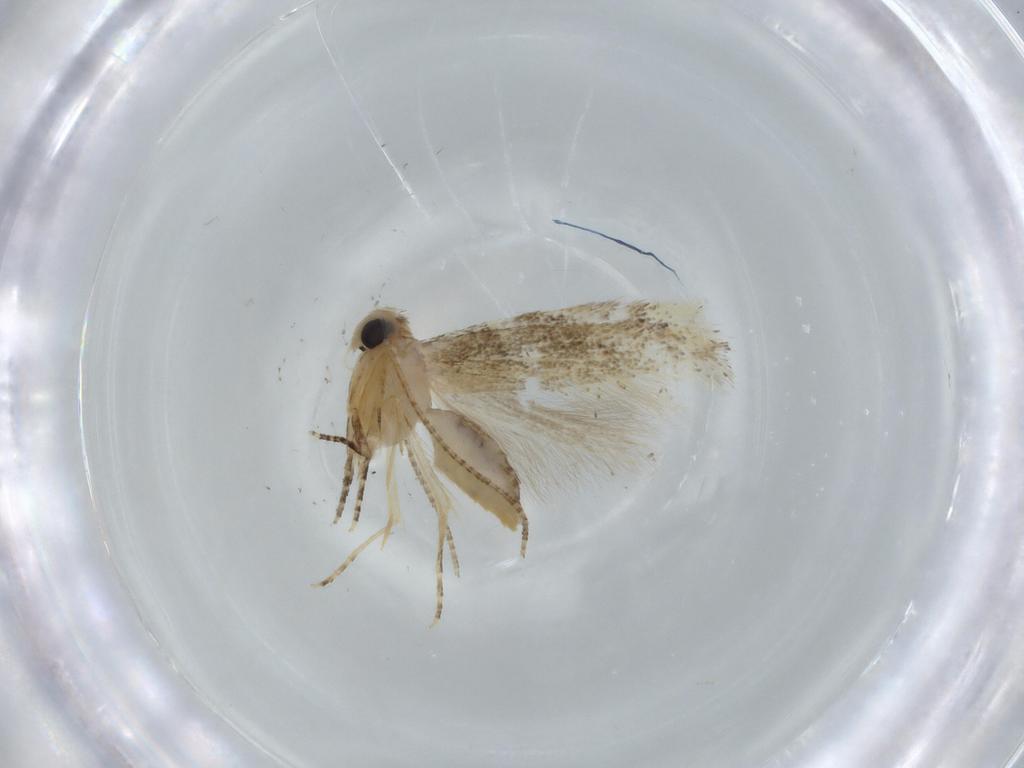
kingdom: Animalia
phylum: Arthropoda
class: Insecta
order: Lepidoptera
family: Bucculatricidae
